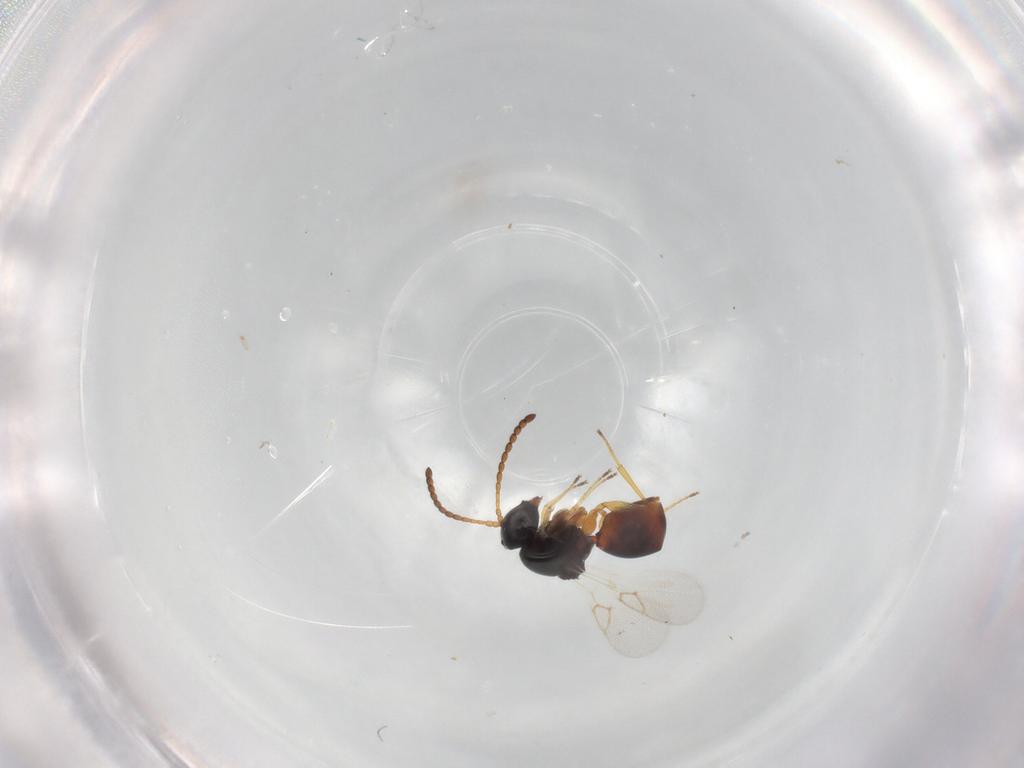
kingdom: Animalia
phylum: Arthropoda
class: Insecta
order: Hymenoptera
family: Figitidae
